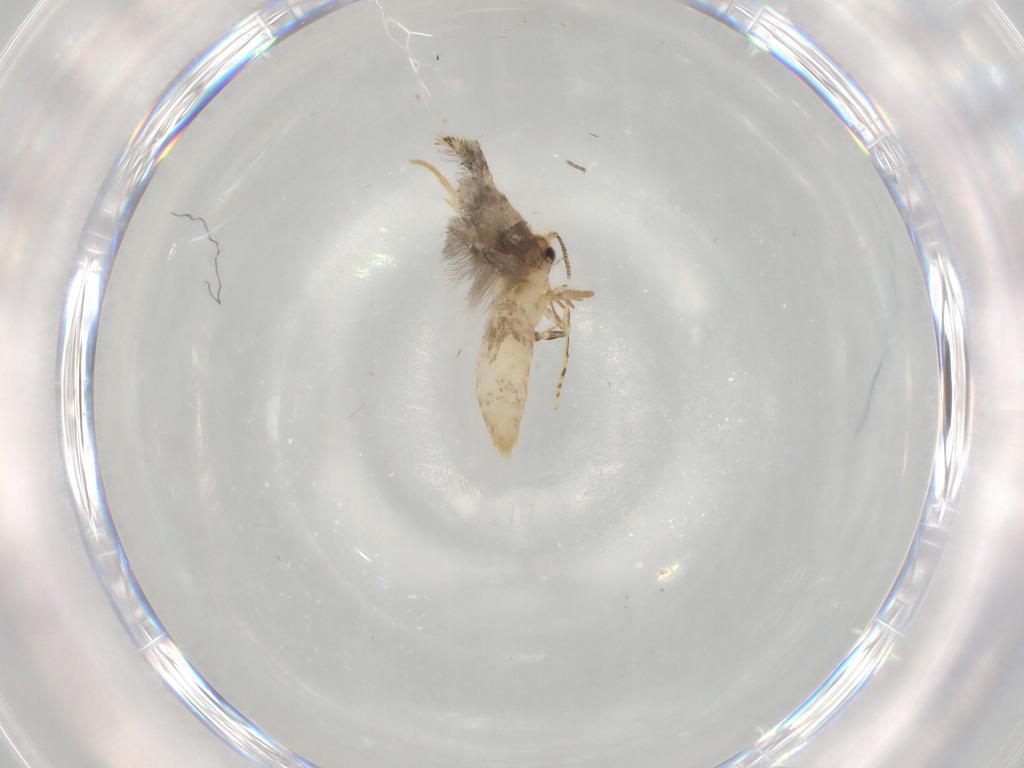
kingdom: Animalia
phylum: Arthropoda
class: Insecta
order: Lepidoptera
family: Tineidae
